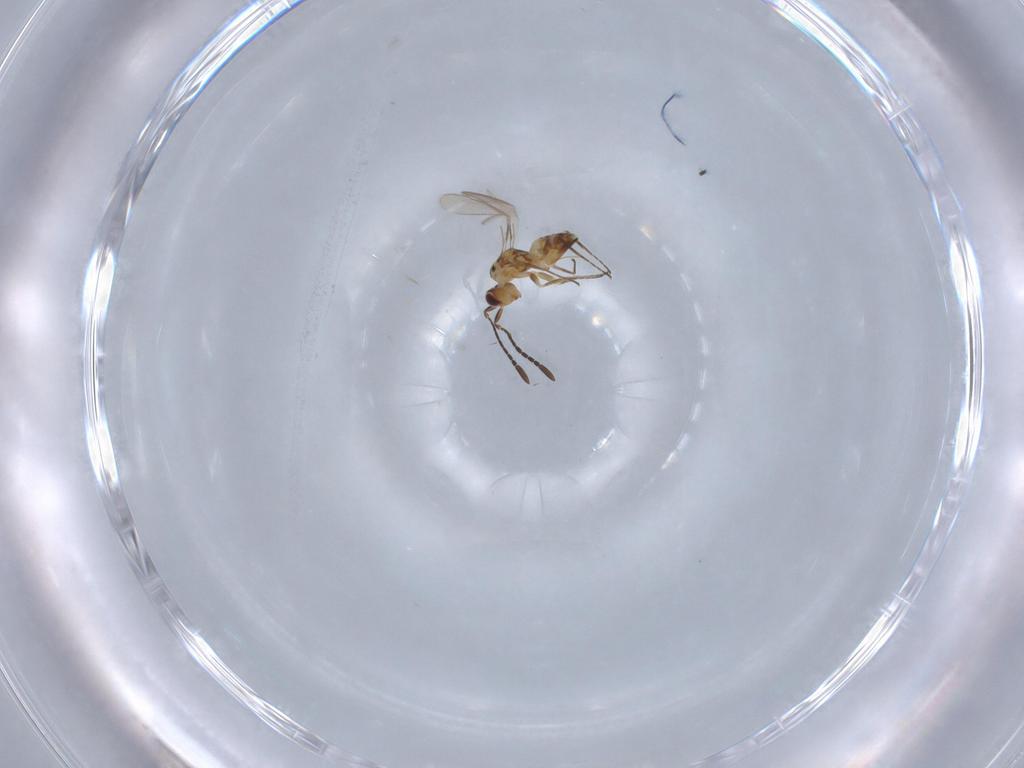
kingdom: Animalia
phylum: Arthropoda
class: Insecta
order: Hymenoptera
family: Mymaridae
